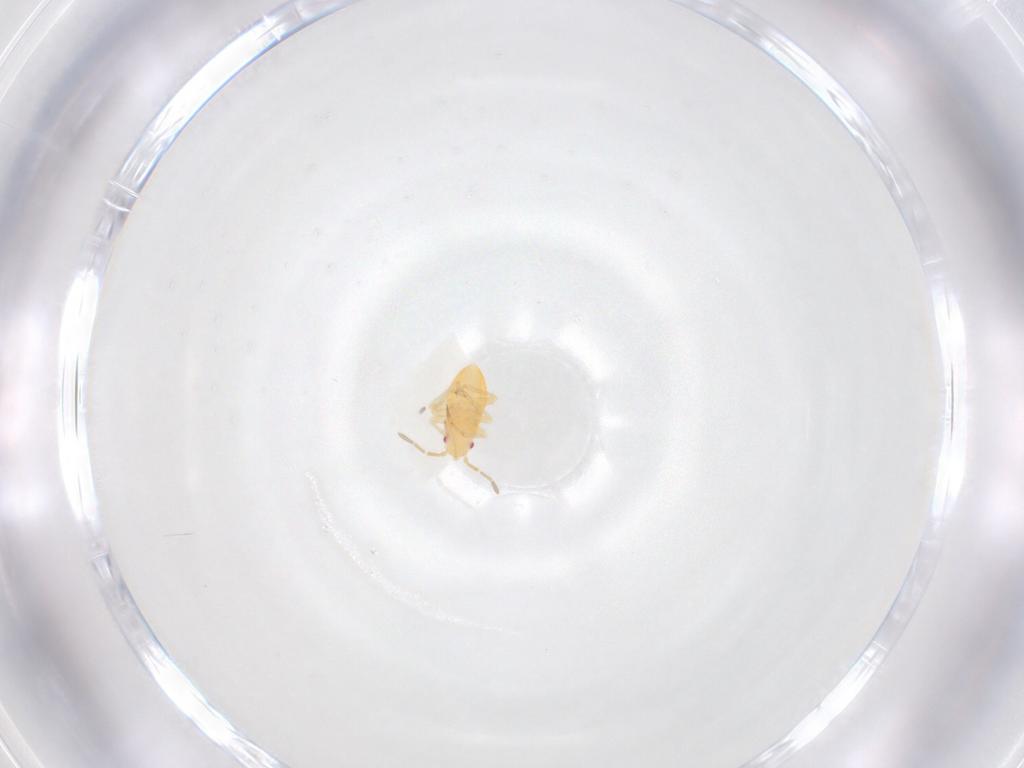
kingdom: Animalia
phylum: Arthropoda
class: Insecta
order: Hemiptera
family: Miridae
